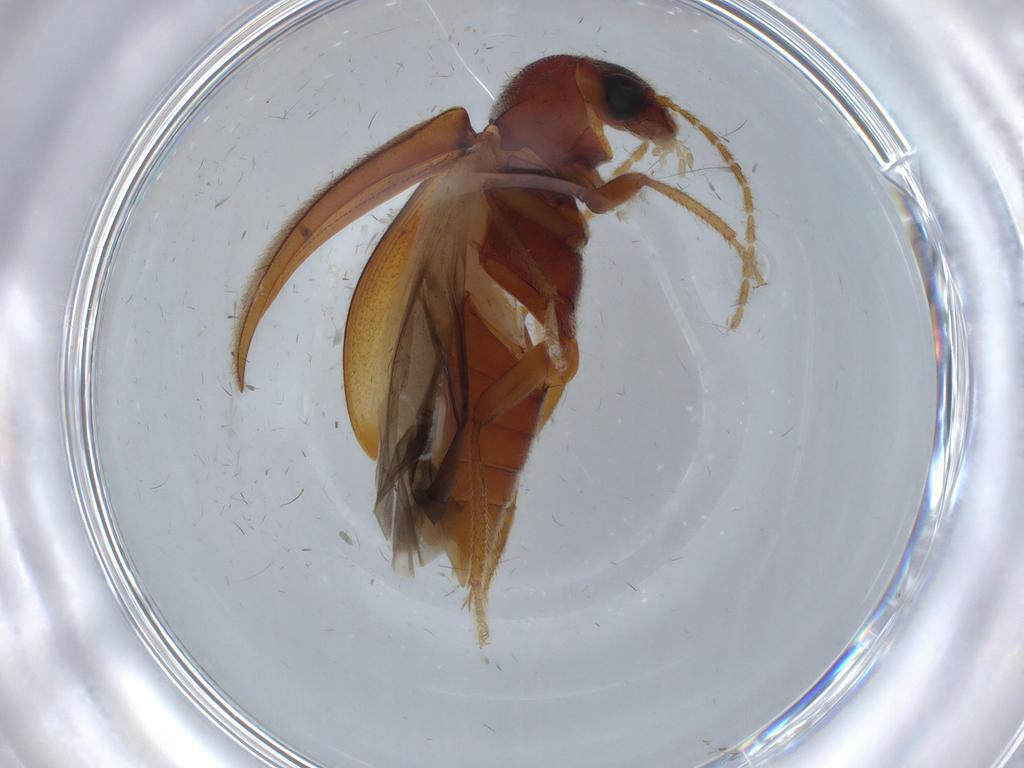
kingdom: Animalia
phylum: Arthropoda
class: Insecta
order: Coleoptera
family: Ptilodactylidae
